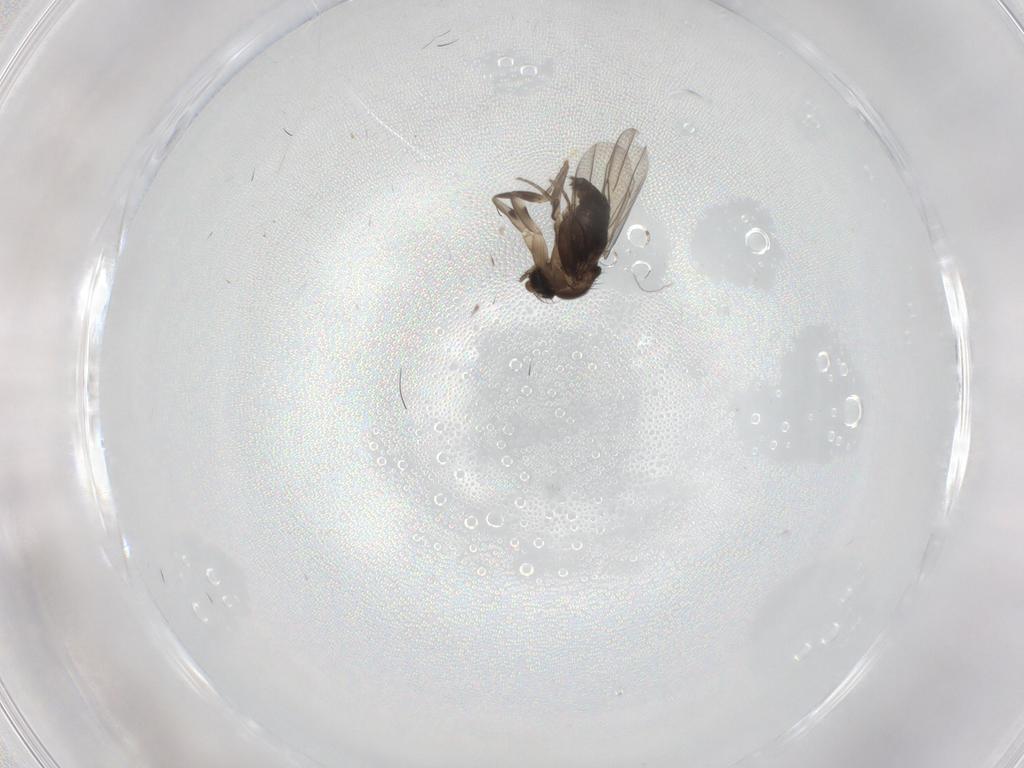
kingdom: Animalia
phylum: Arthropoda
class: Insecta
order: Diptera
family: Phoridae
